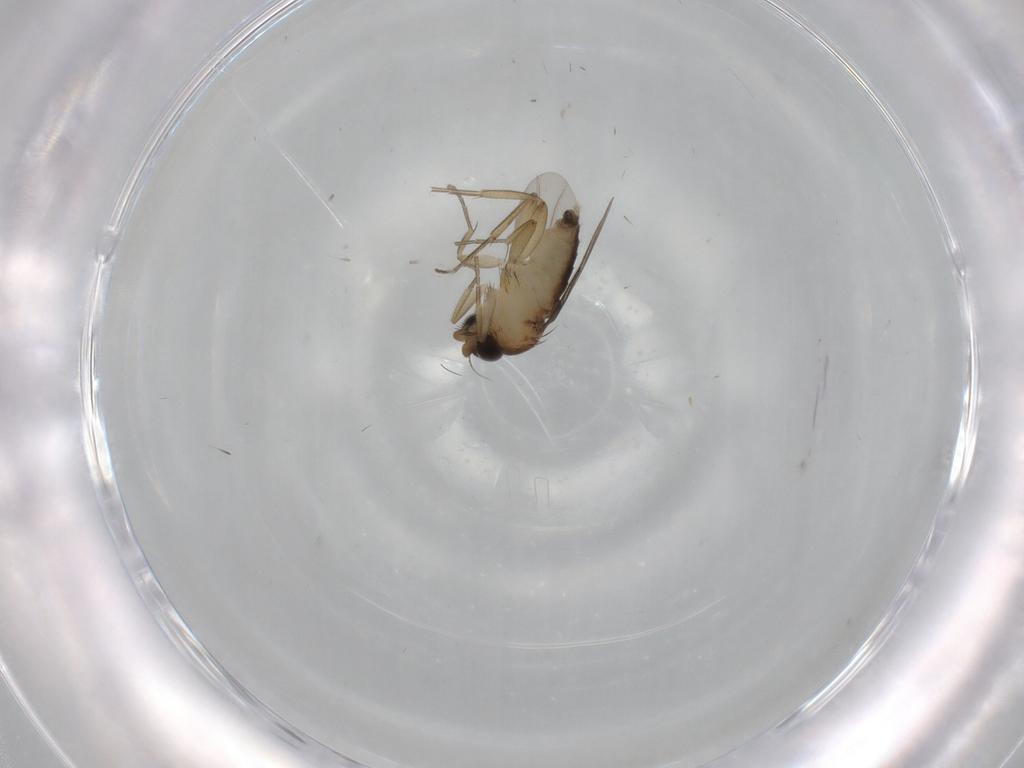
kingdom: Animalia
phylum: Arthropoda
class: Insecta
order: Diptera
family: Phoridae
